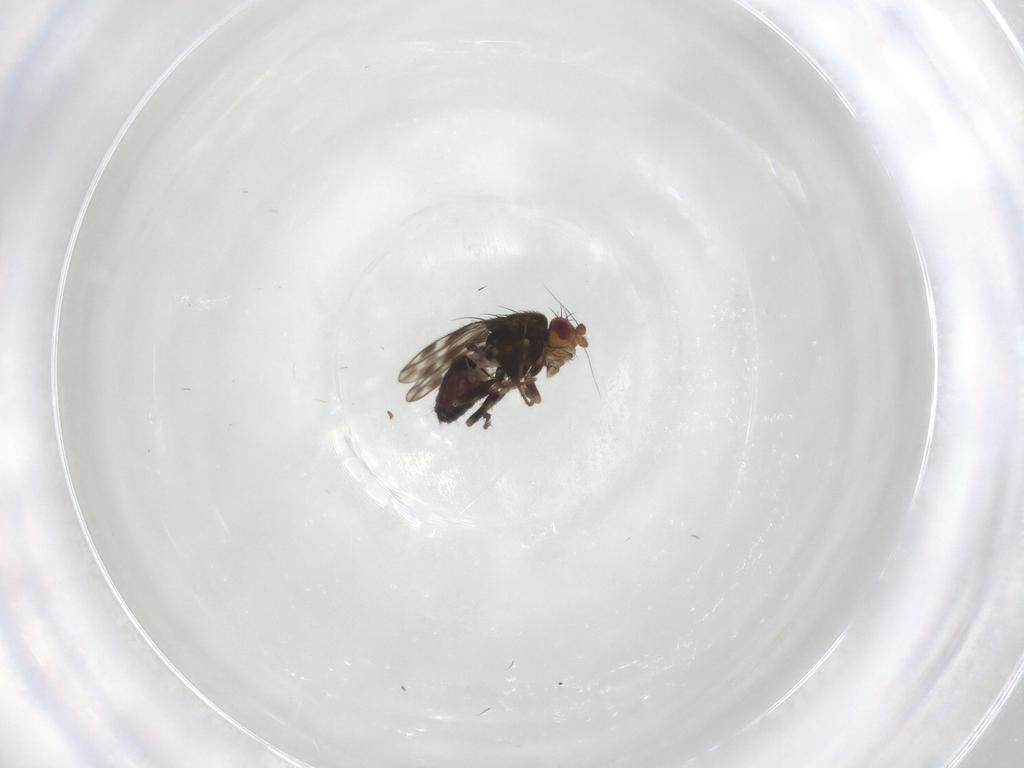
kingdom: Animalia
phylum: Arthropoda
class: Insecta
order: Diptera
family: Sphaeroceridae
